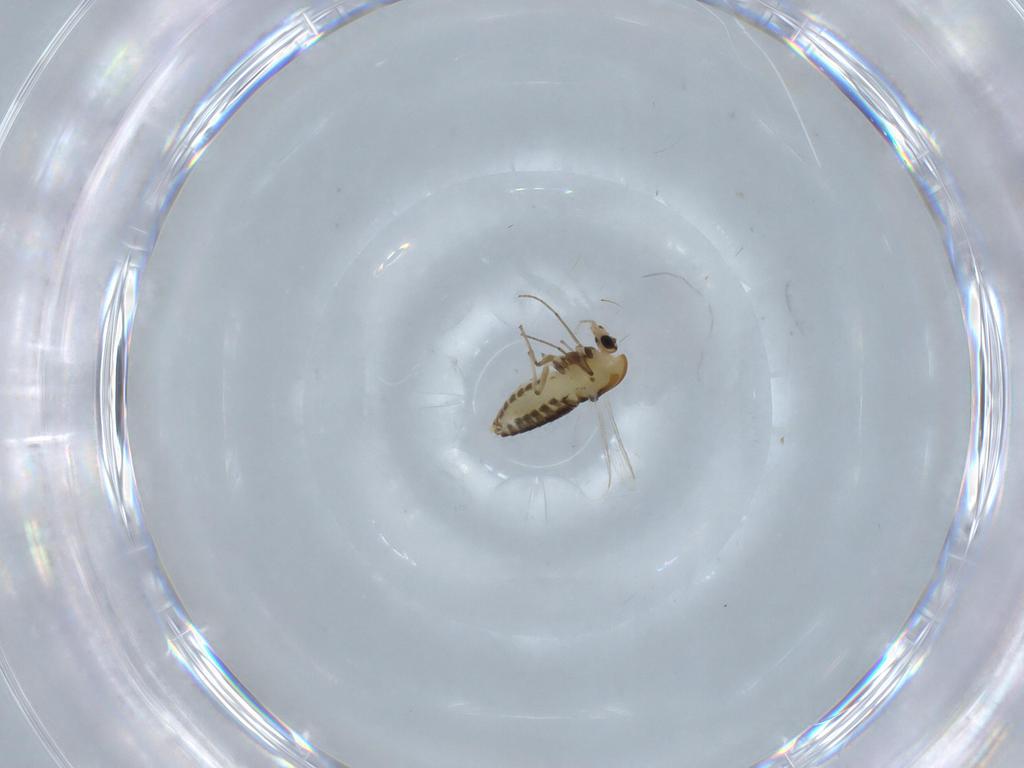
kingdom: Animalia
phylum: Arthropoda
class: Insecta
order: Diptera
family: Chironomidae
